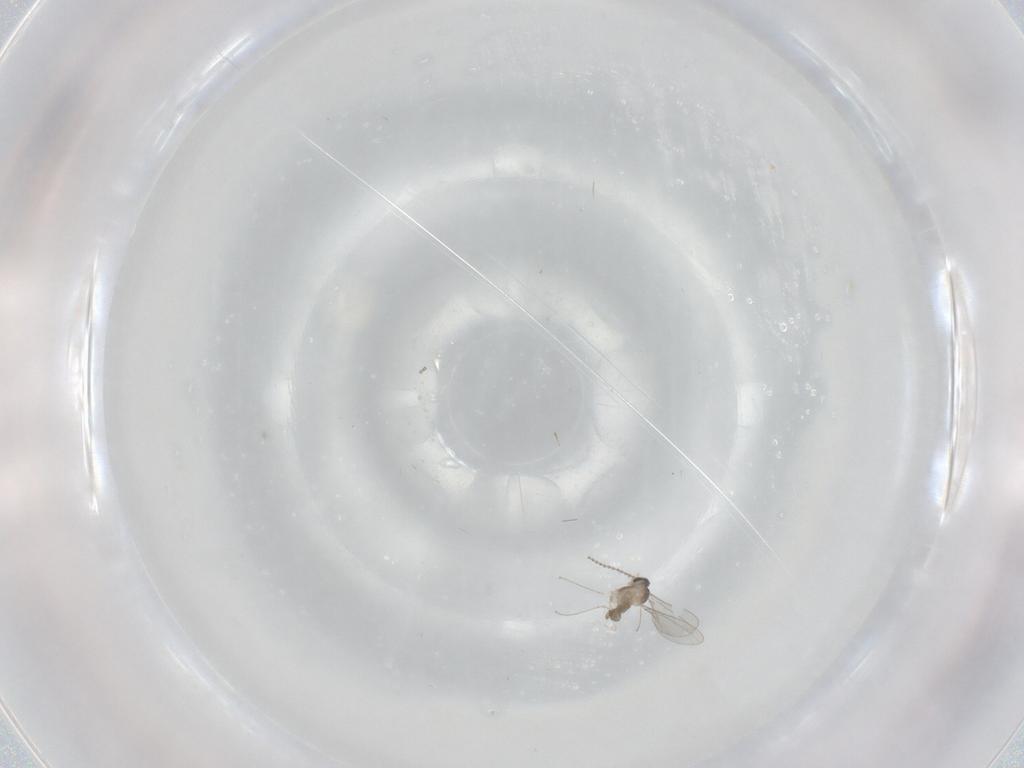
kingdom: Animalia
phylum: Arthropoda
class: Insecta
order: Diptera
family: Cecidomyiidae
